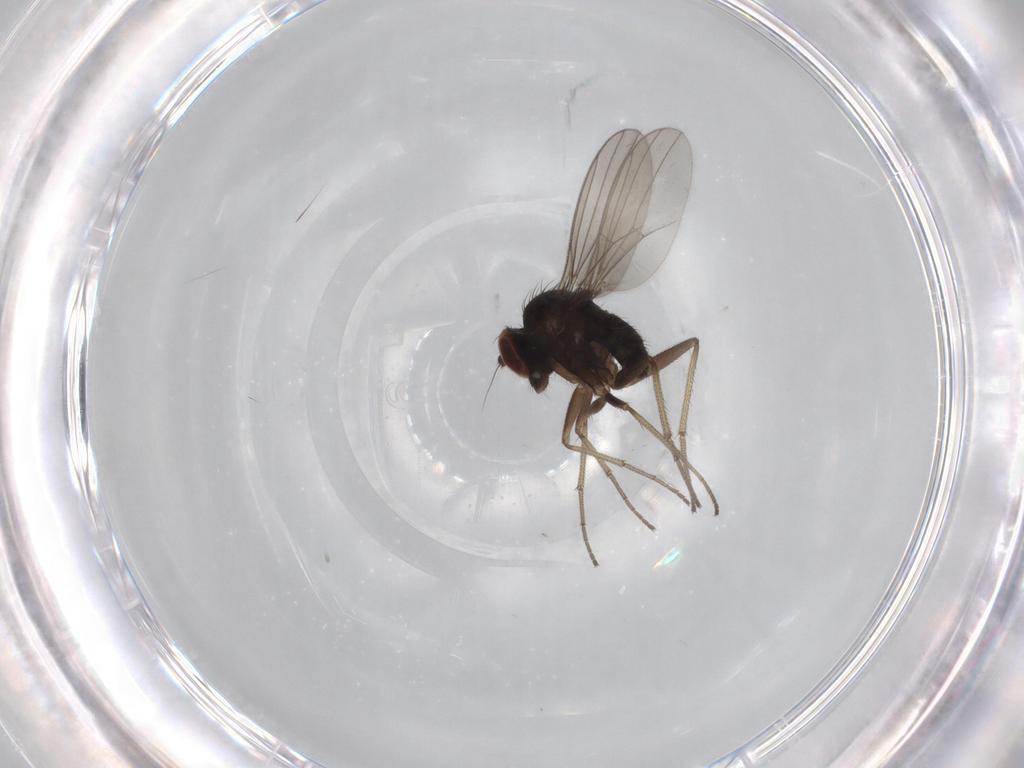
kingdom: Animalia
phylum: Arthropoda
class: Insecta
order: Diptera
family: Dolichopodidae
